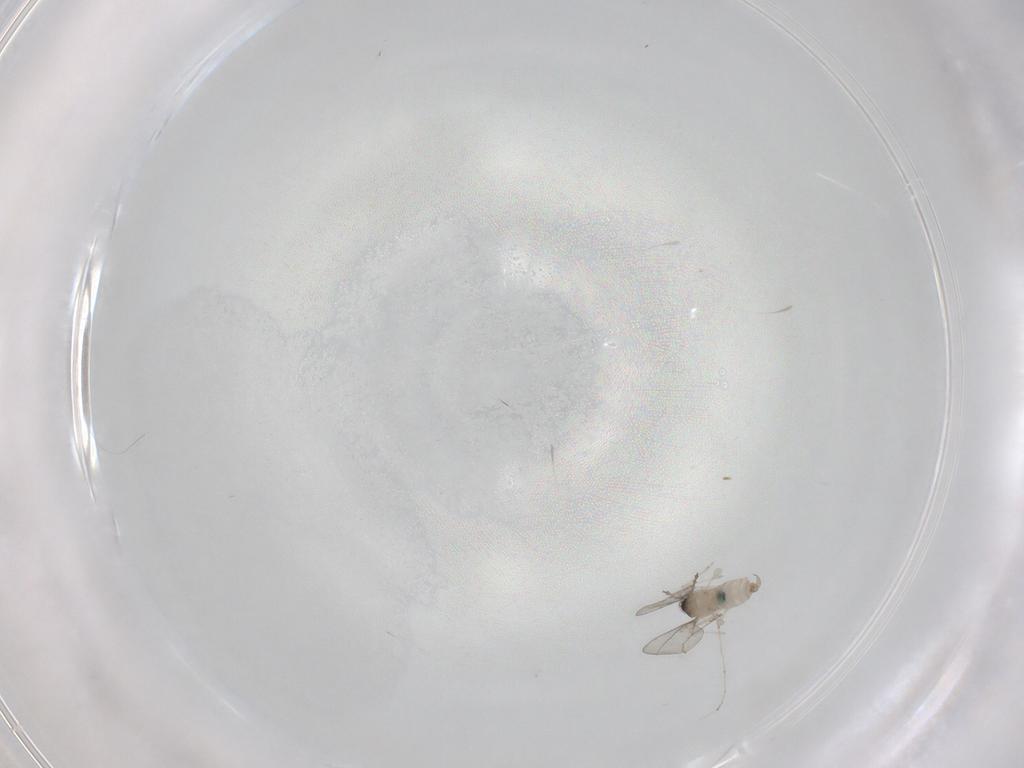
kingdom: Animalia
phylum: Arthropoda
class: Insecta
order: Diptera
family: Cecidomyiidae
